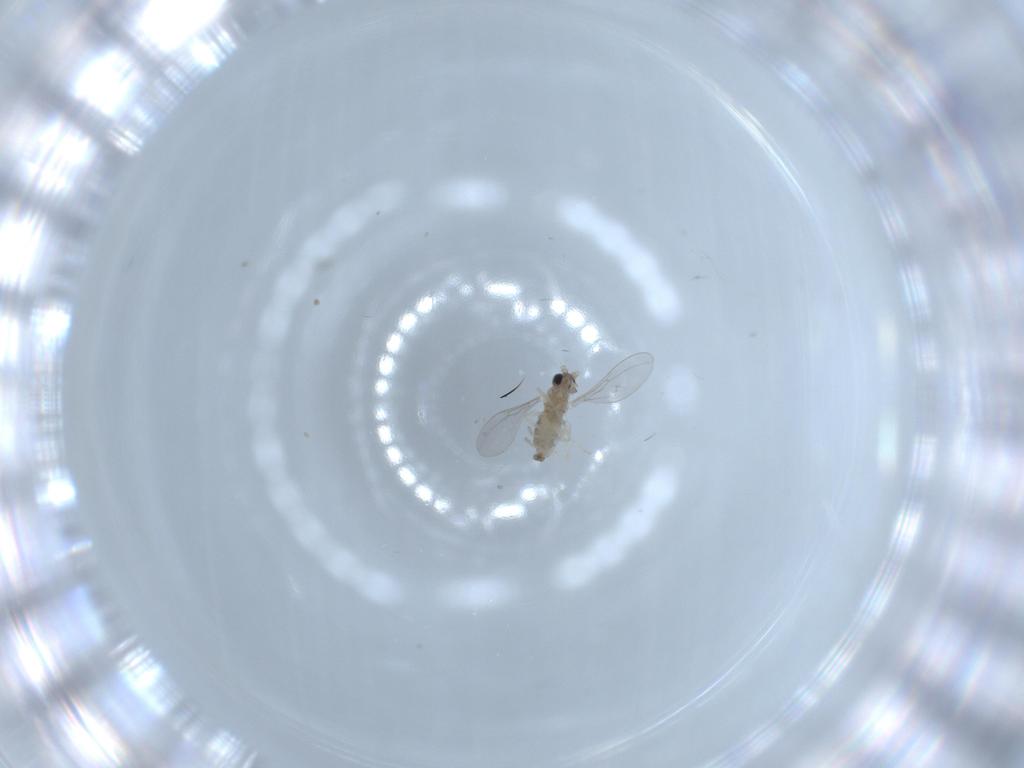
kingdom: Animalia
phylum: Arthropoda
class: Insecta
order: Diptera
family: Cecidomyiidae
